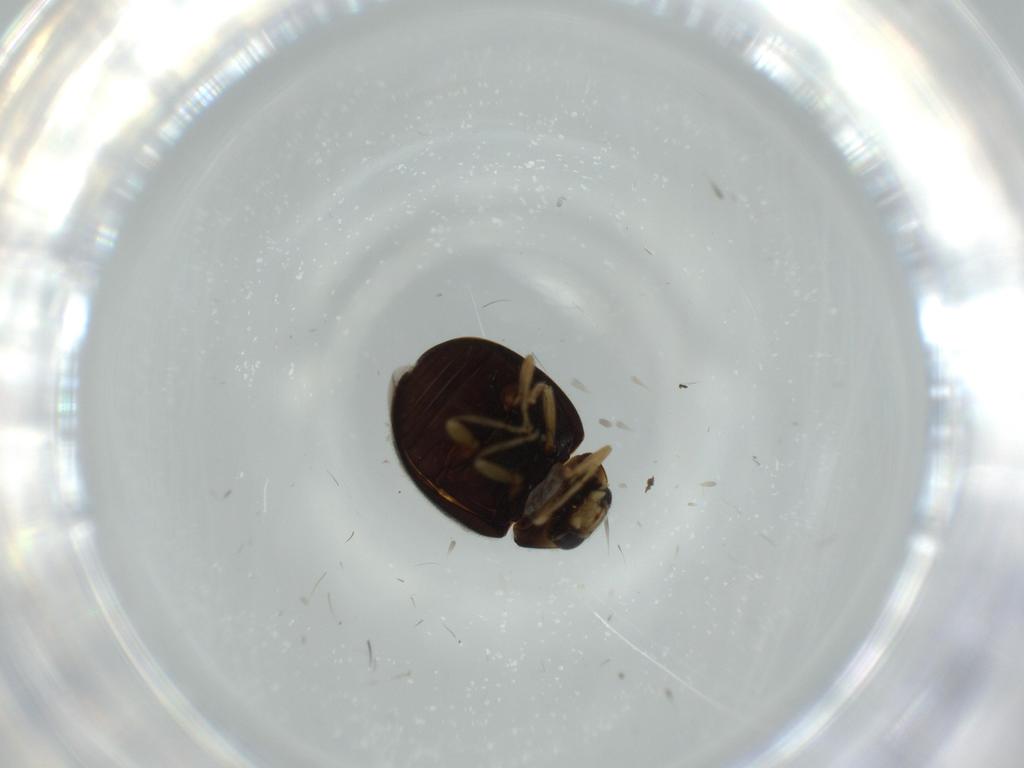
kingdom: Animalia
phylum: Arthropoda
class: Insecta
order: Coleoptera
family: Coccinellidae
